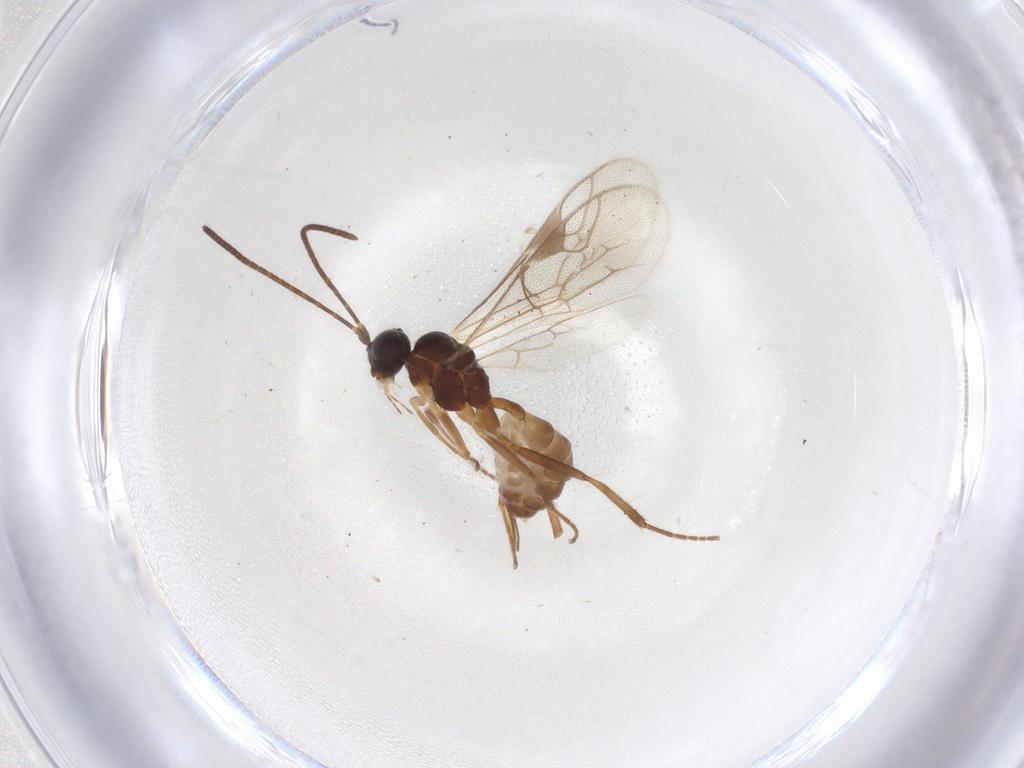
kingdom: Animalia
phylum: Arthropoda
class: Insecta
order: Hymenoptera
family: Ichneumonidae
